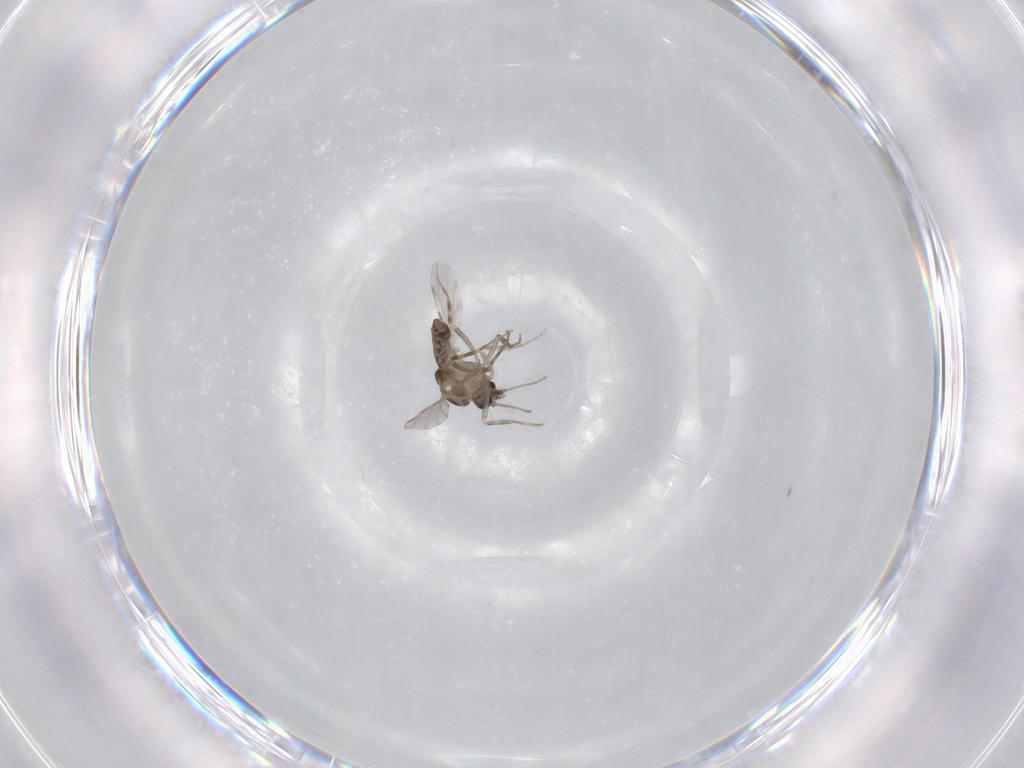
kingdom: Animalia
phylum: Arthropoda
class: Insecta
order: Diptera
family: Ceratopogonidae
